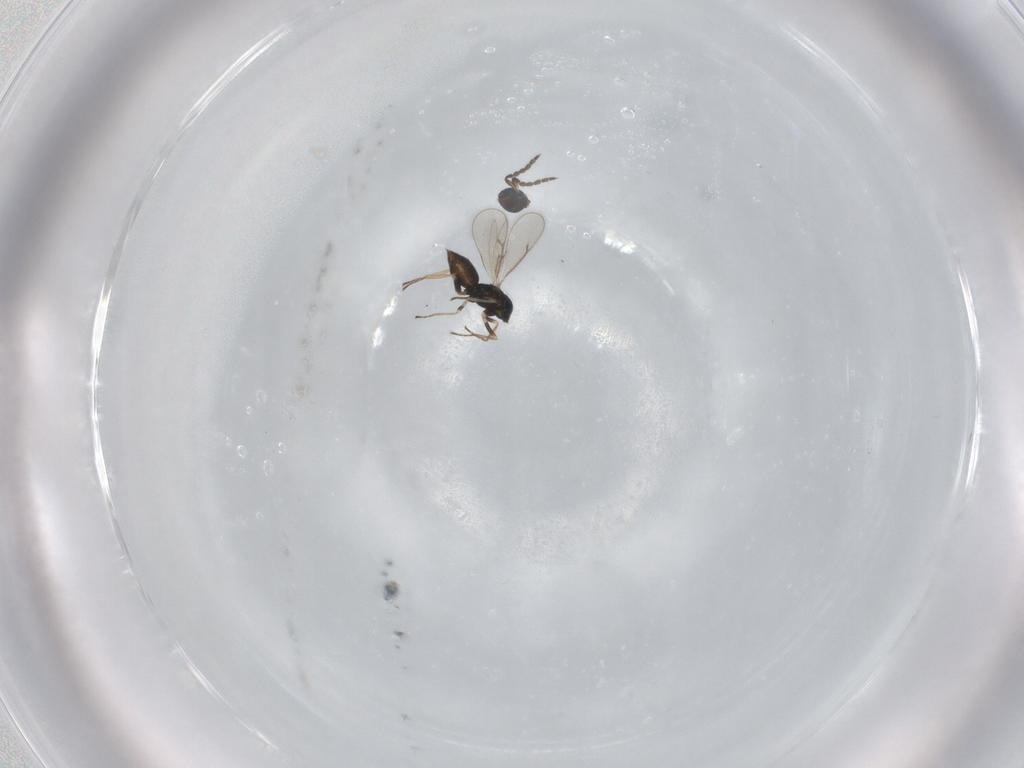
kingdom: Animalia
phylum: Arthropoda
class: Insecta
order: Hymenoptera
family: Eulophidae
